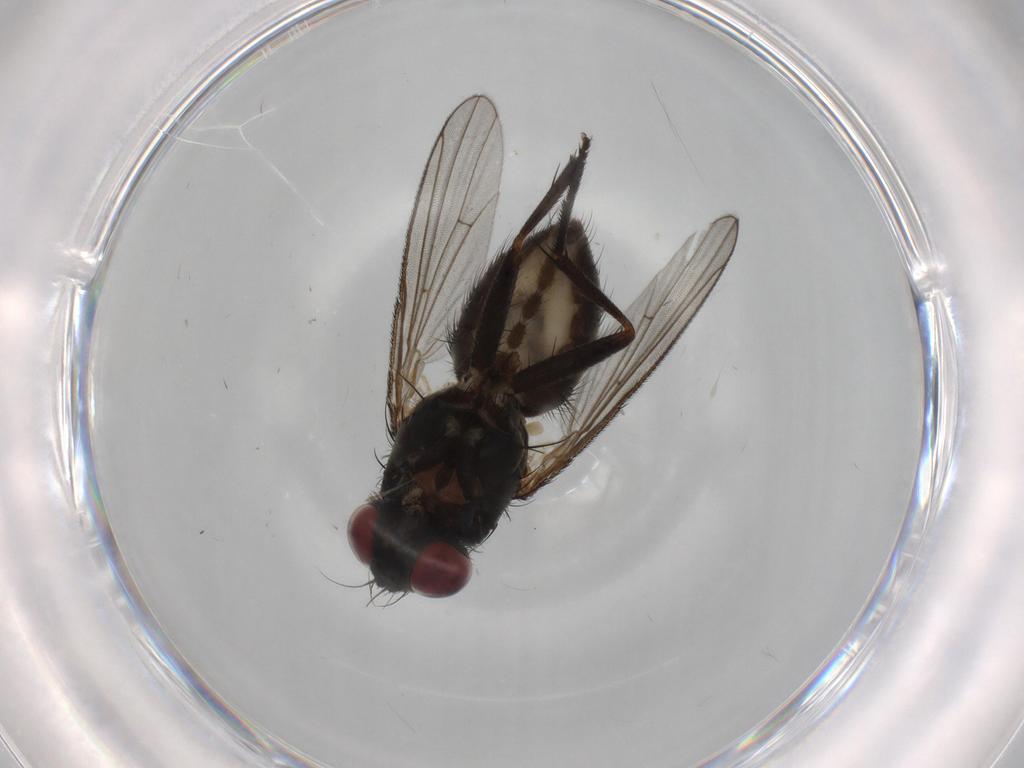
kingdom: Animalia
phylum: Arthropoda
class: Insecta
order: Diptera
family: Muscidae
